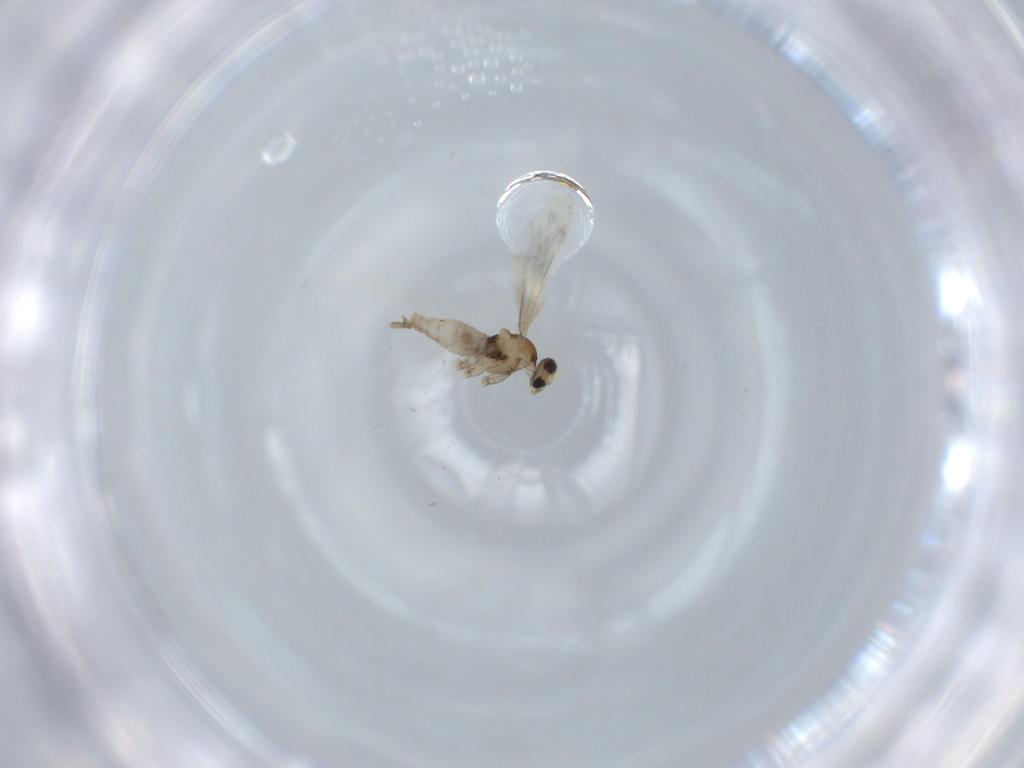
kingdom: Animalia
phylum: Arthropoda
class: Insecta
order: Diptera
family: Cecidomyiidae
